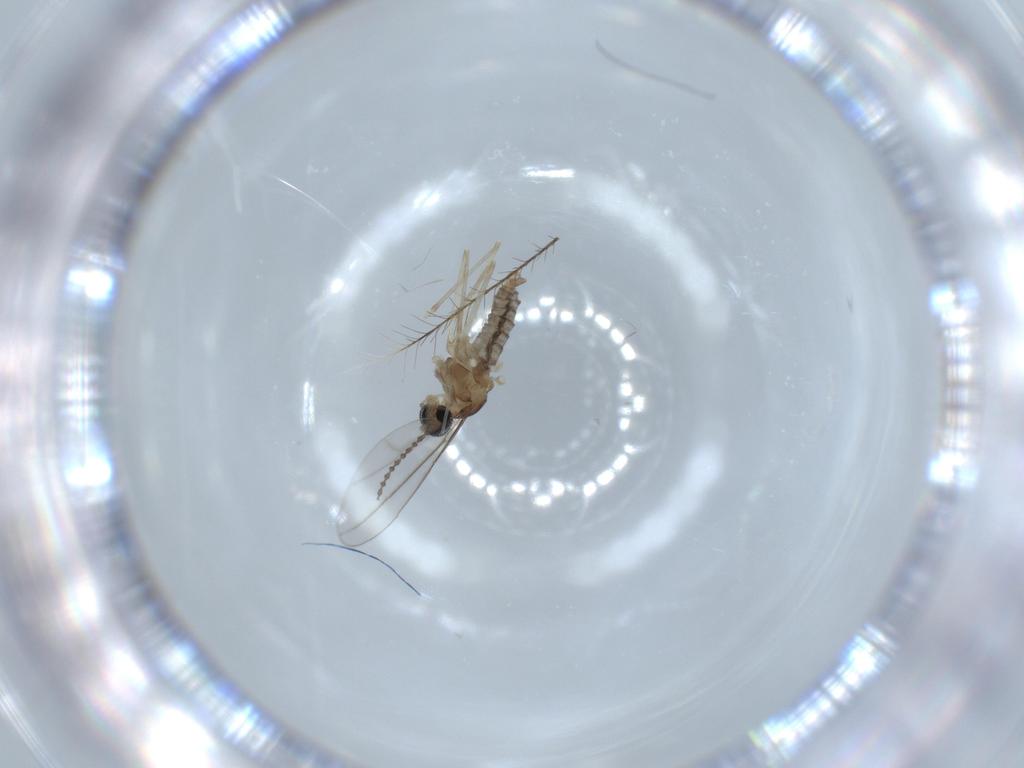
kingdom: Animalia
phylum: Arthropoda
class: Insecta
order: Diptera
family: Cecidomyiidae
